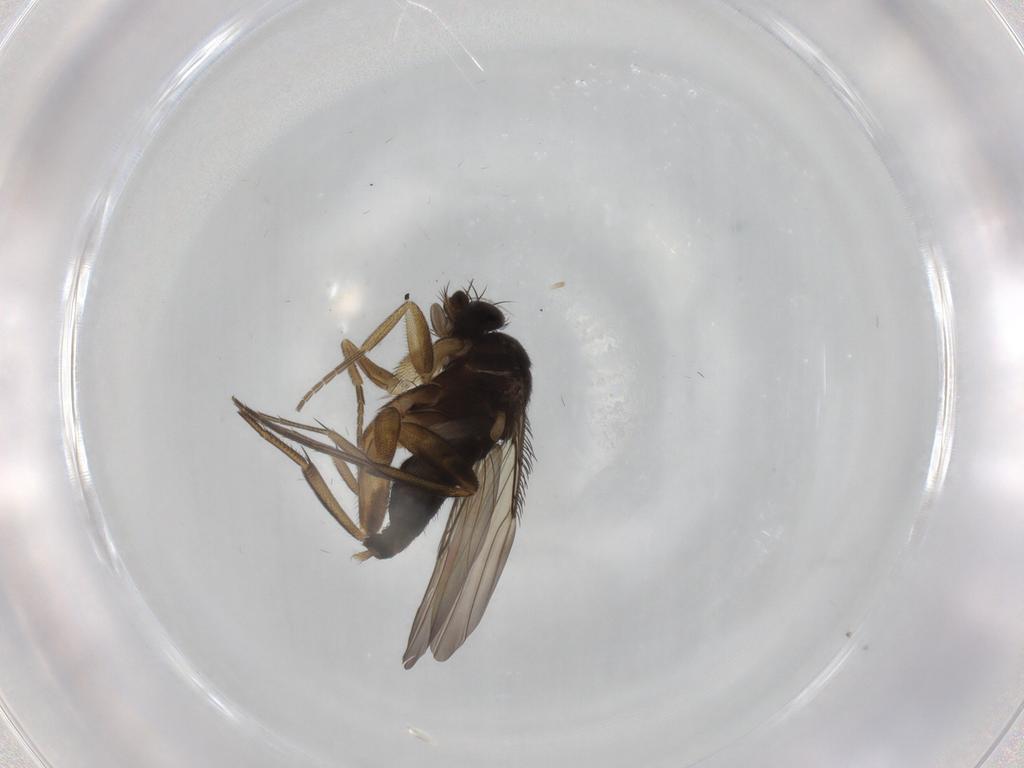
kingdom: Animalia
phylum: Arthropoda
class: Insecta
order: Diptera
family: Phoridae
